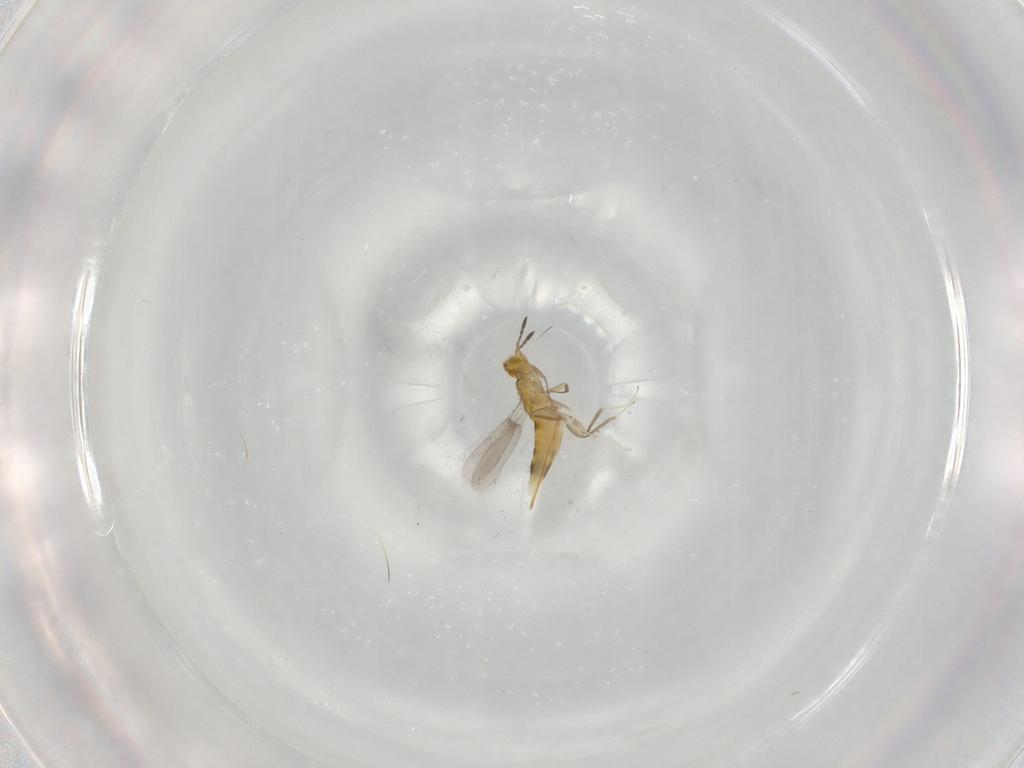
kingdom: Animalia
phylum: Arthropoda
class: Insecta
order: Hymenoptera
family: Aphelinidae
